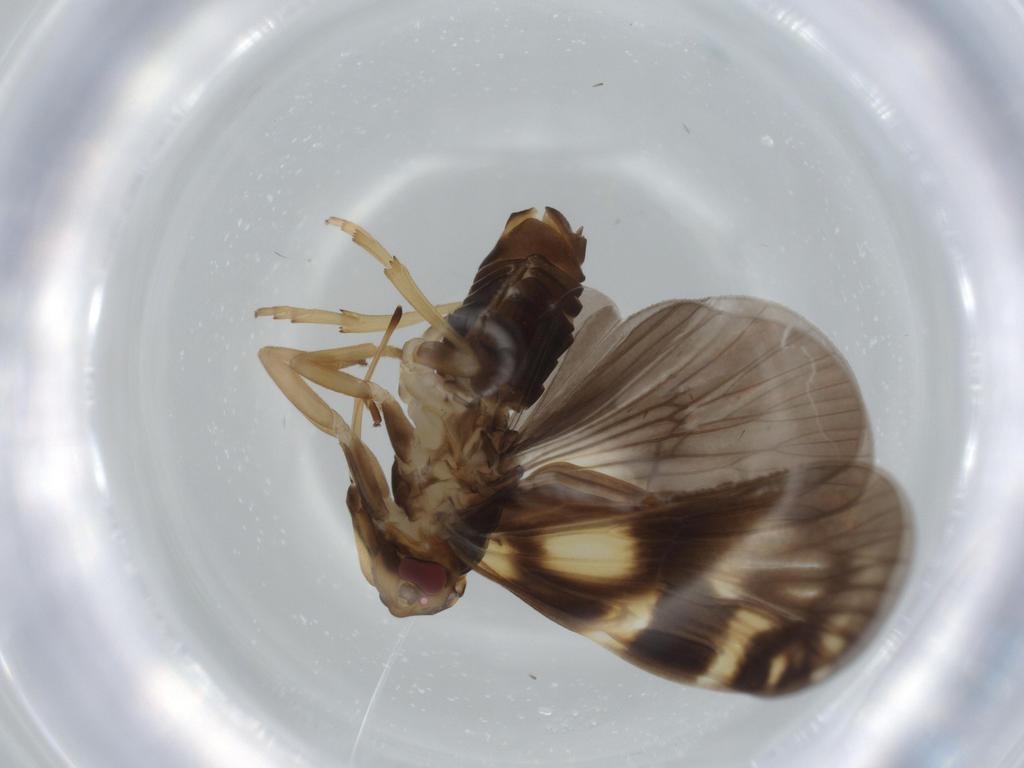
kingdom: Animalia
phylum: Arthropoda
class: Insecta
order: Hemiptera
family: Cixiidae
